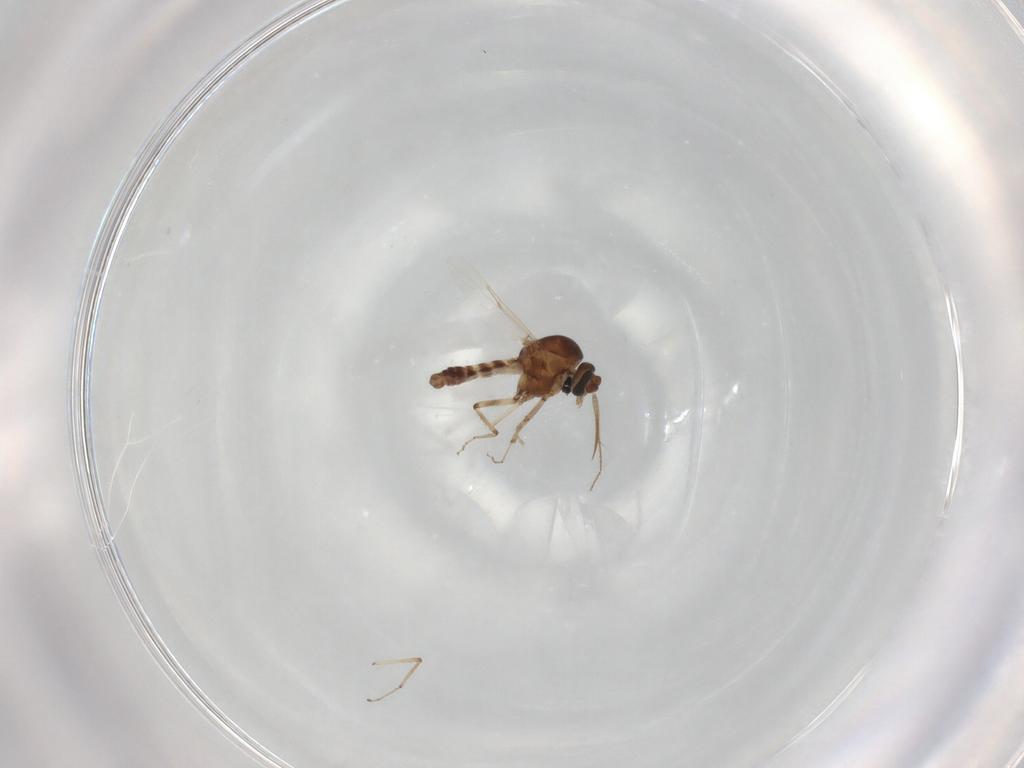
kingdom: Animalia
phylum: Arthropoda
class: Insecta
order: Diptera
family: Ceratopogonidae
